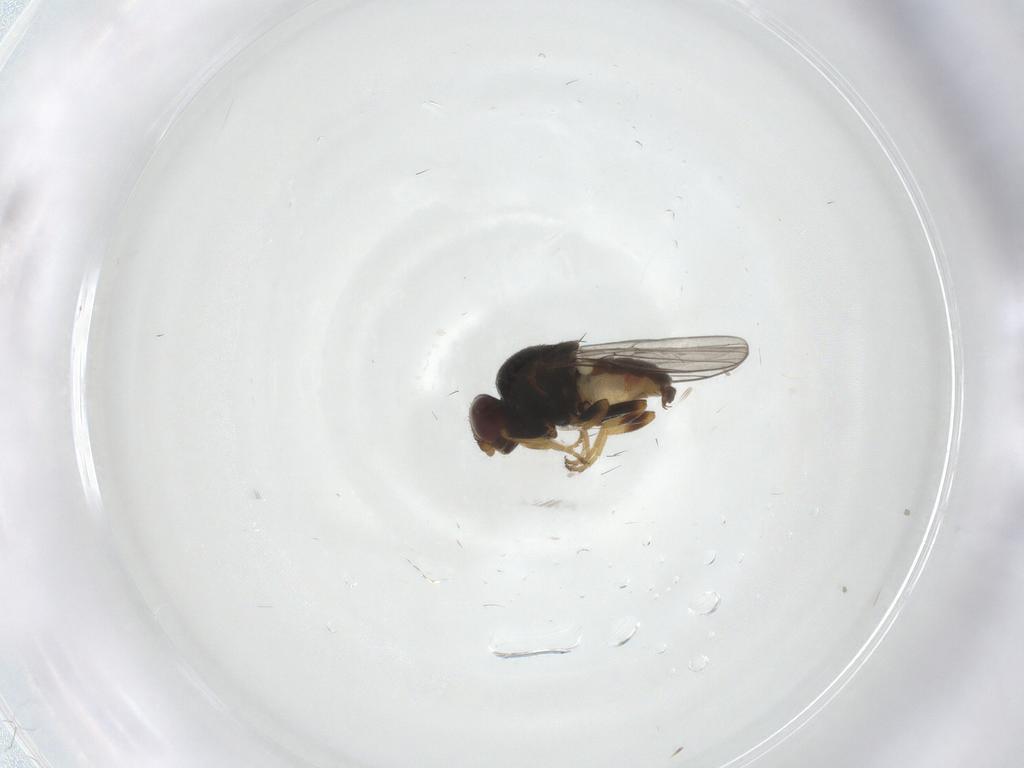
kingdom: Animalia
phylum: Arthropoda
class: Insecta
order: Diptera
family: Chloropidae
